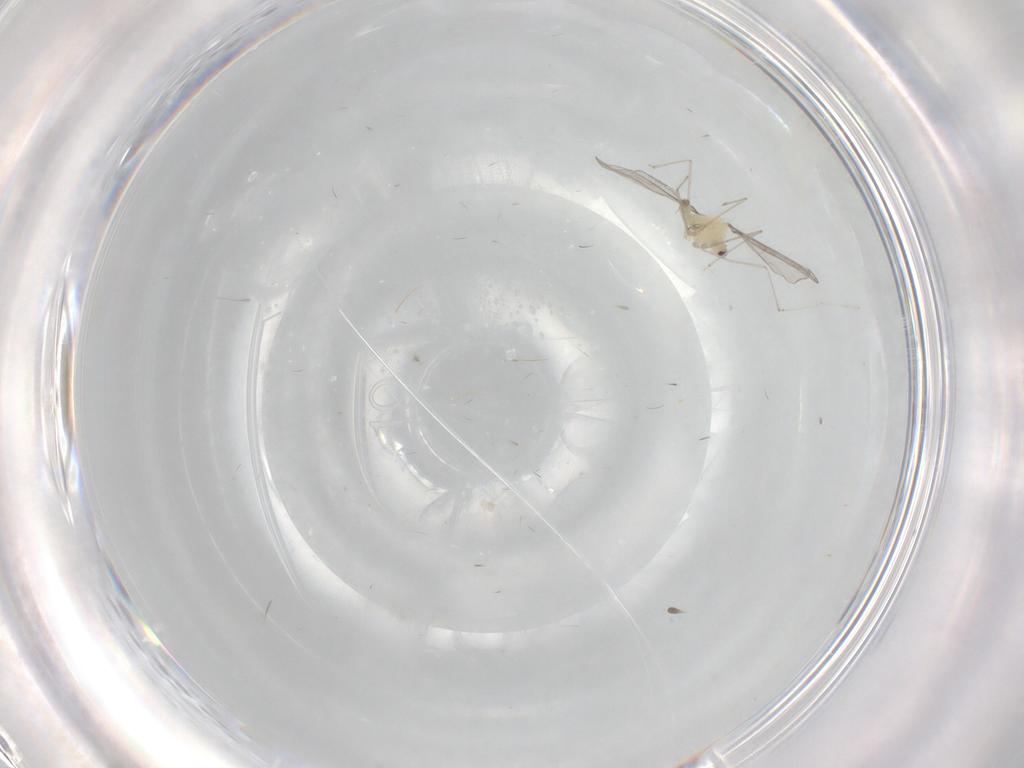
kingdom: Animalia
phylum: Arthropoda
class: Insecta
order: Diptera
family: Cecidomyiidae
